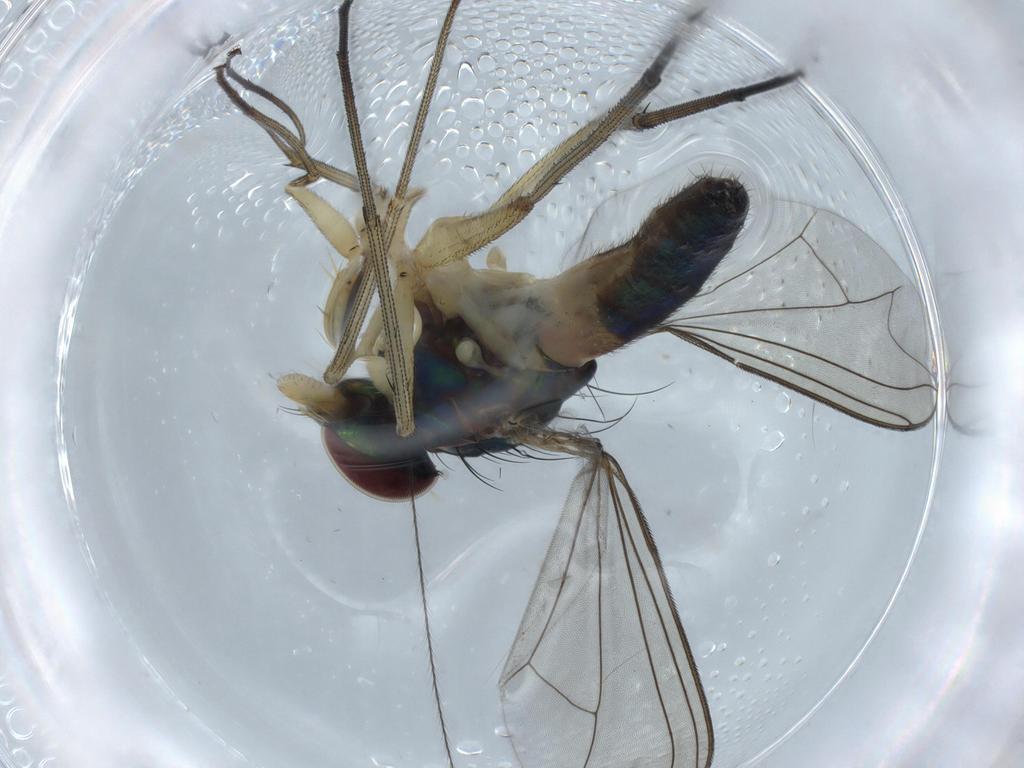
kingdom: Animalia
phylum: Arthropoda
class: Insecta
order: Diptera
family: Dolichopodidae
